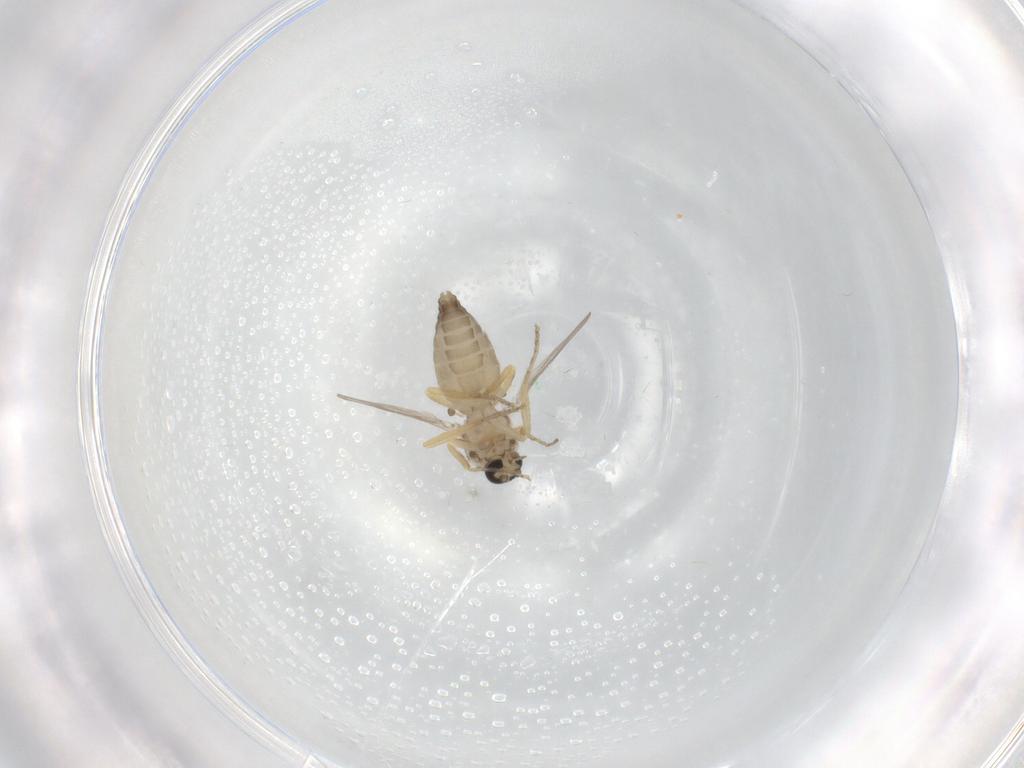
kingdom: Animalia
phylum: Arthropoda
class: Insecta
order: Diptera
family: Ceratopogonidae
